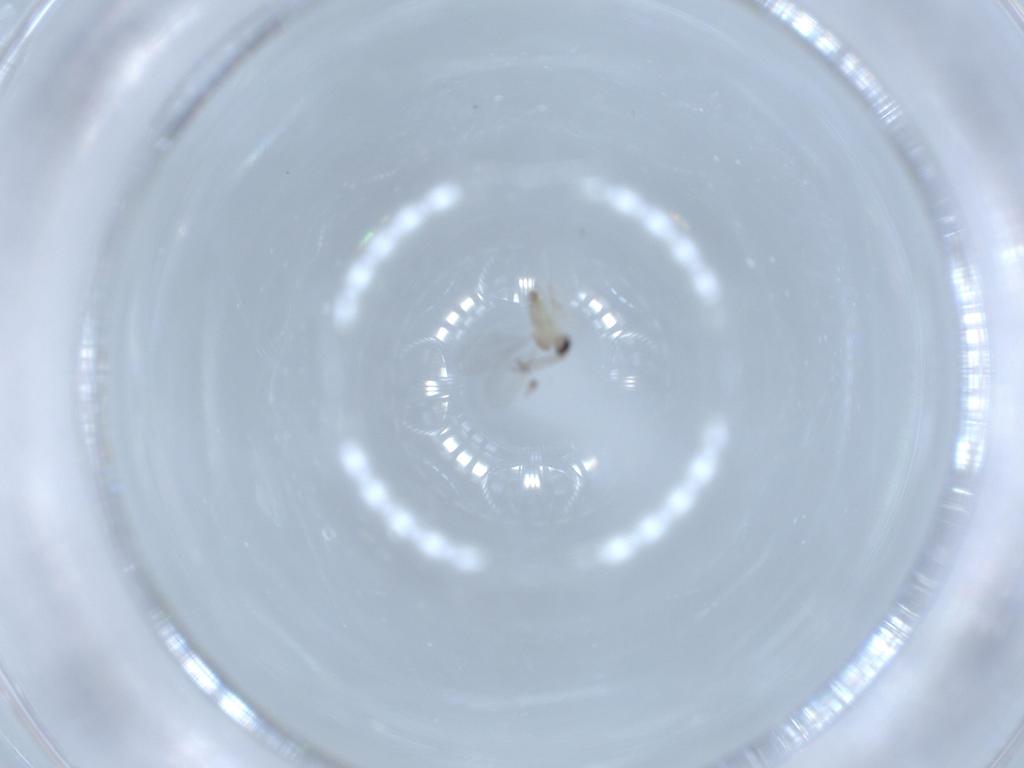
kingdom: Animalia
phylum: Arthropoda
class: Insecta
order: Diptera
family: Cecidomyiidae
